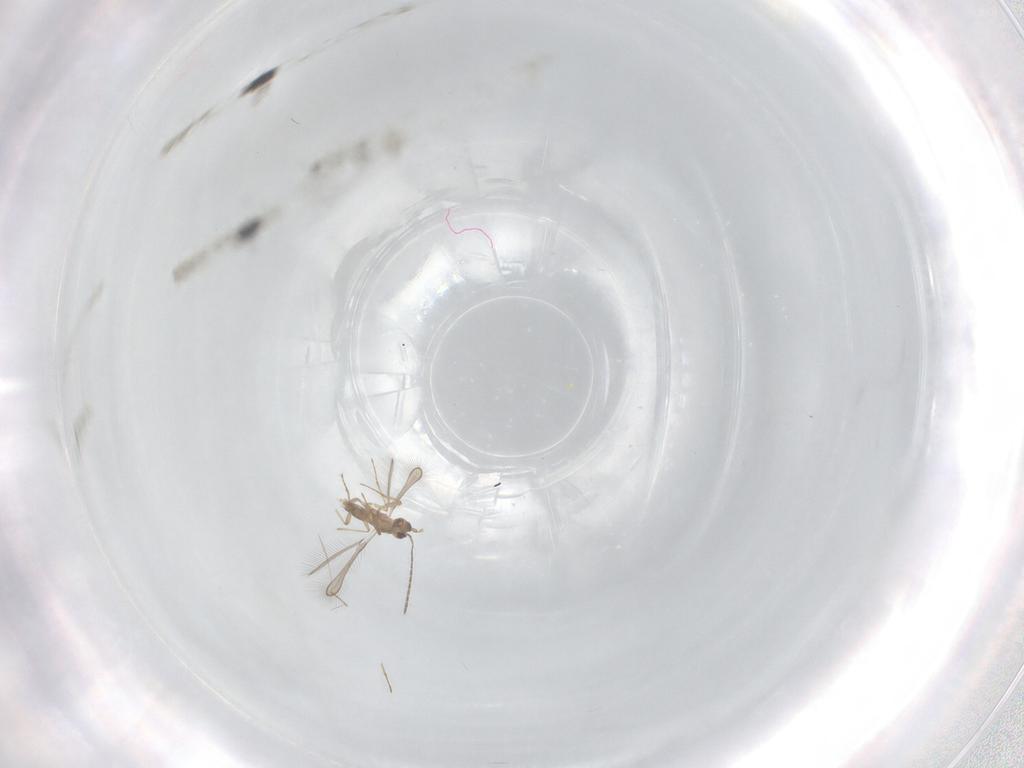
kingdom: Animalia
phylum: Arthropoda
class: Insecta
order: Hymenoptera
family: Mymaridae
